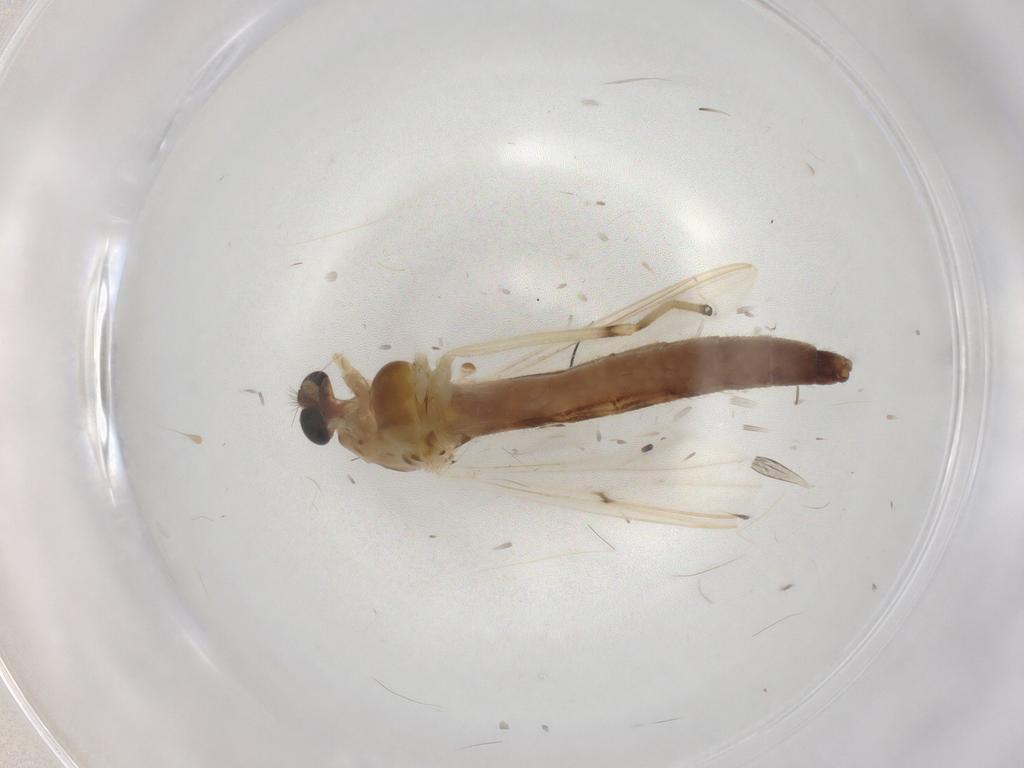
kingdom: Animalia
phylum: Arthropoda
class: Insecta
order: Diptera
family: Chironomidae
